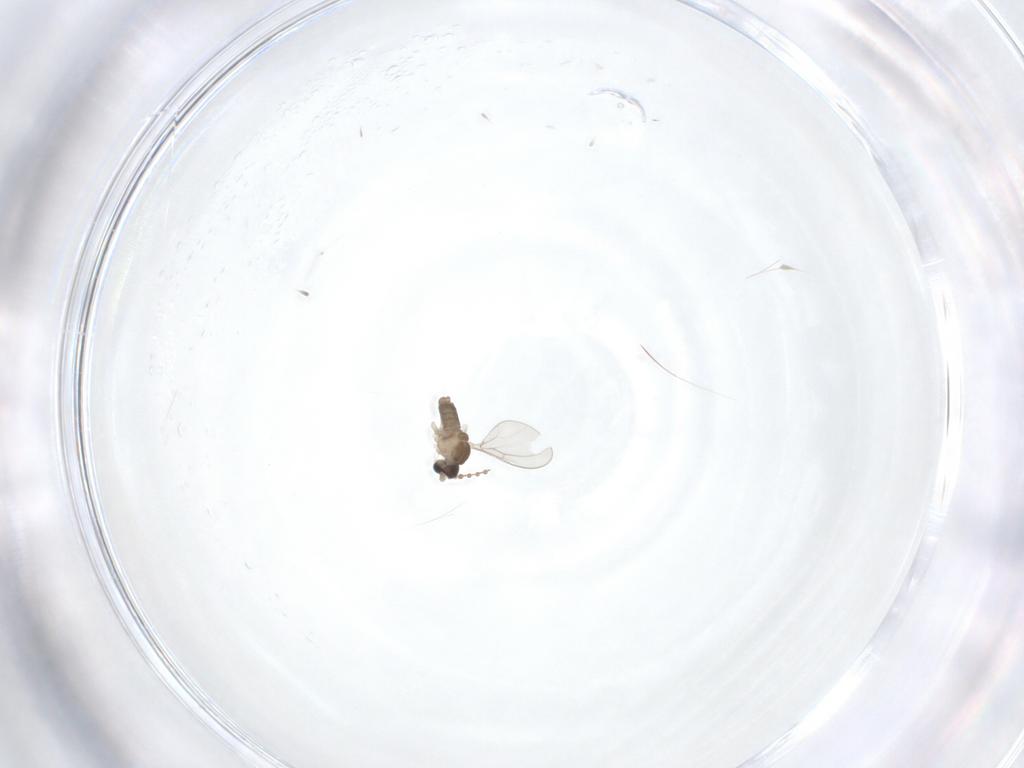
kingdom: Animalia
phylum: Arthropoda
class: Insecta
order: Diptera
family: Cecidomyiidae
